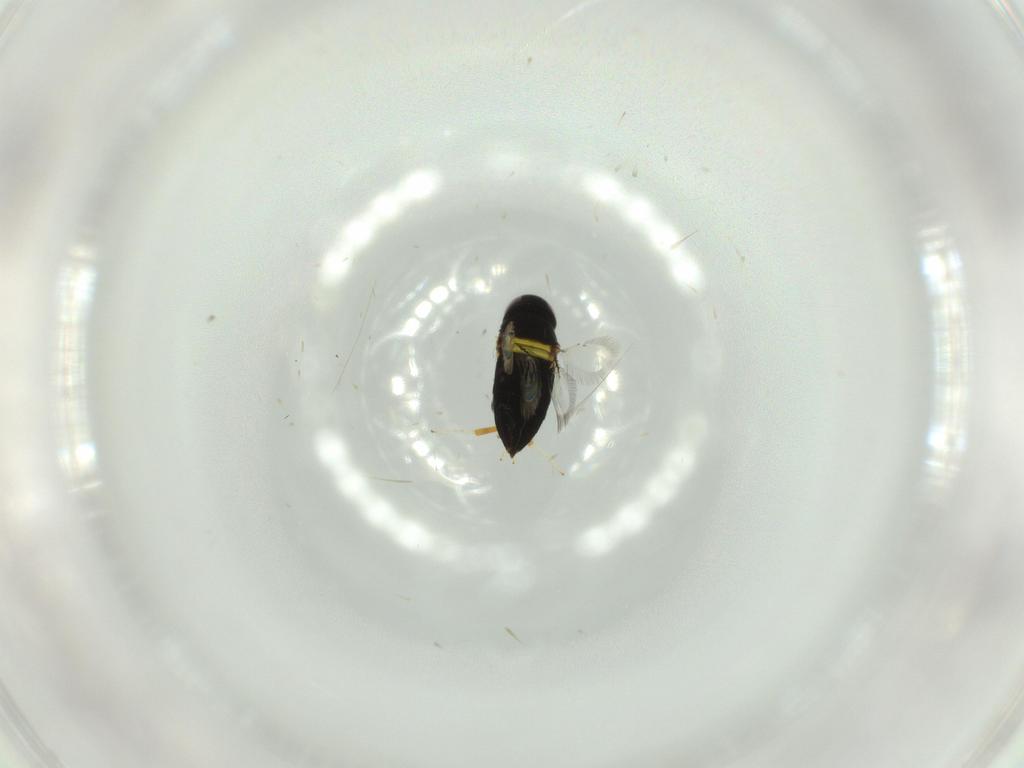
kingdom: Animalia
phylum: Arthropoda
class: Insecta
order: Hymenoptera
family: Signiphoridae
